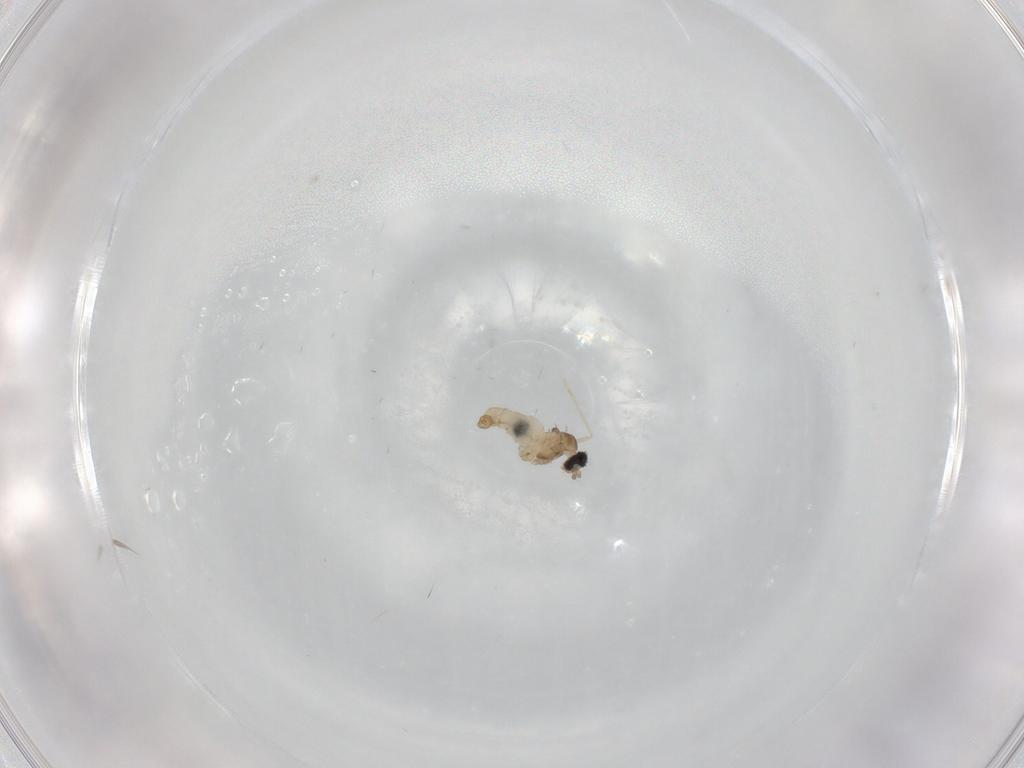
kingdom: Animalia
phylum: Arthropoda
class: Insecta
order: Diptera
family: Cecidomyiidae
